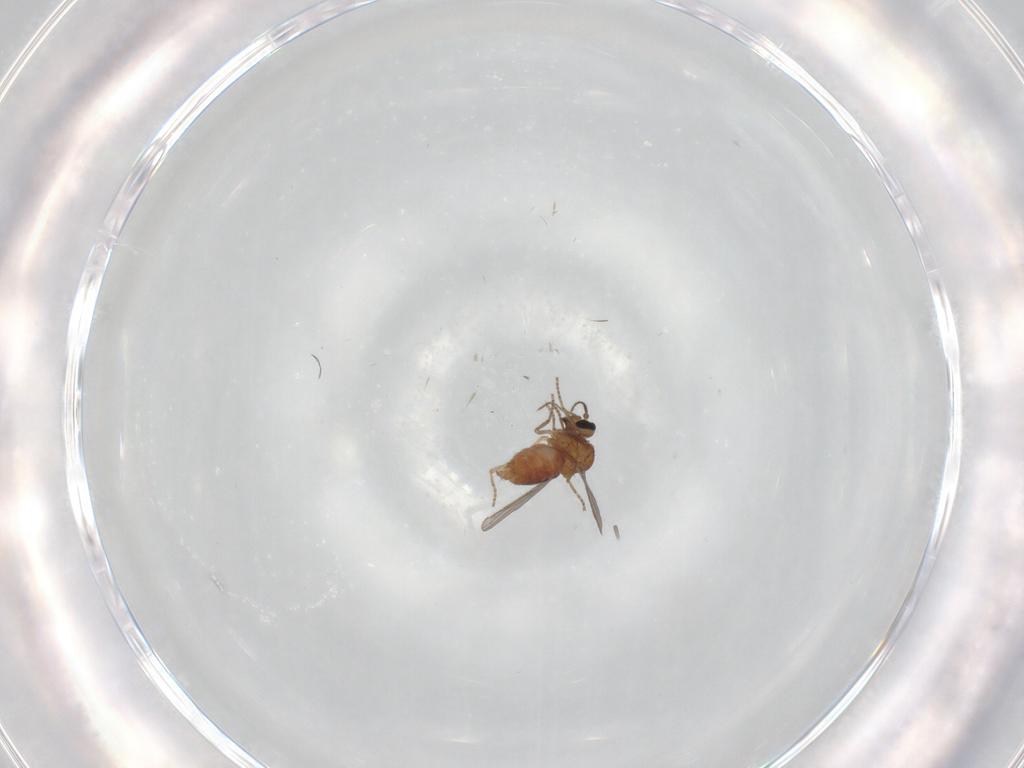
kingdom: Animalia
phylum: Arthropoda
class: Insecta
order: Diptera
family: Ceratopogonidae
